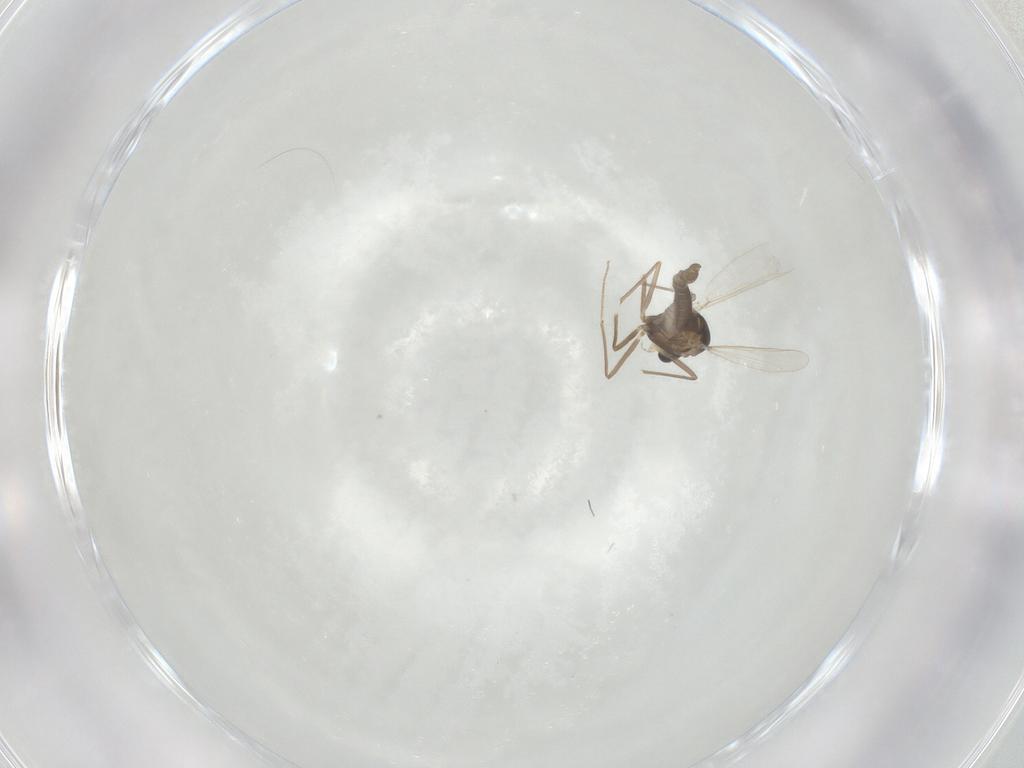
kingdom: Animalia
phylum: Arthropoda
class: Insecta
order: Diptera
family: Chironomidae
